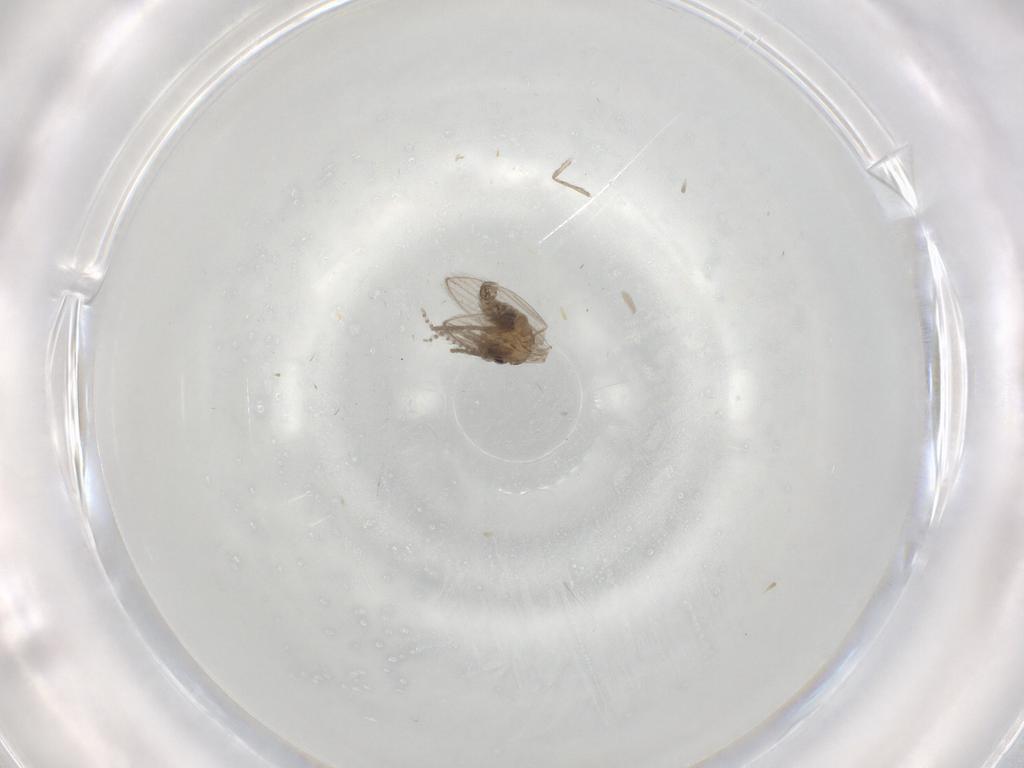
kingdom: Animalia
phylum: Arthropoda
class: Insecta
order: Diptera
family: Psychodidae
